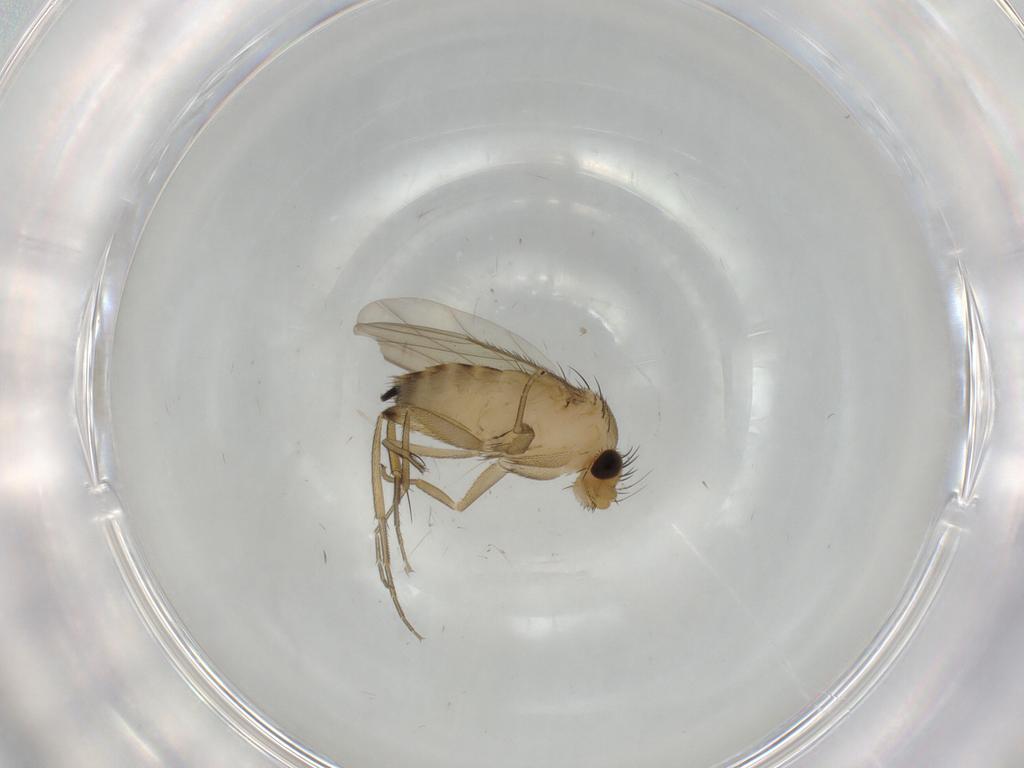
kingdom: Animalia
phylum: Arthropoda
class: Insecta
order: Diptera
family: Phoridae
